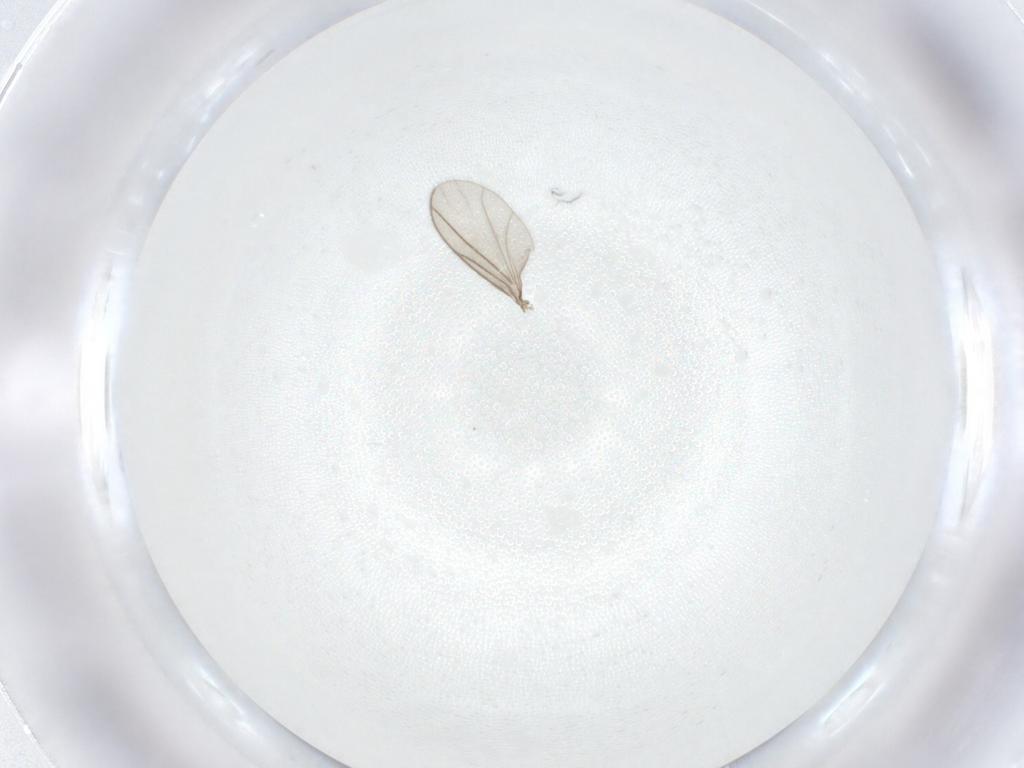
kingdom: Animalia
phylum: Arthropoda
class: Insecta
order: Diptera
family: Sciaridae
